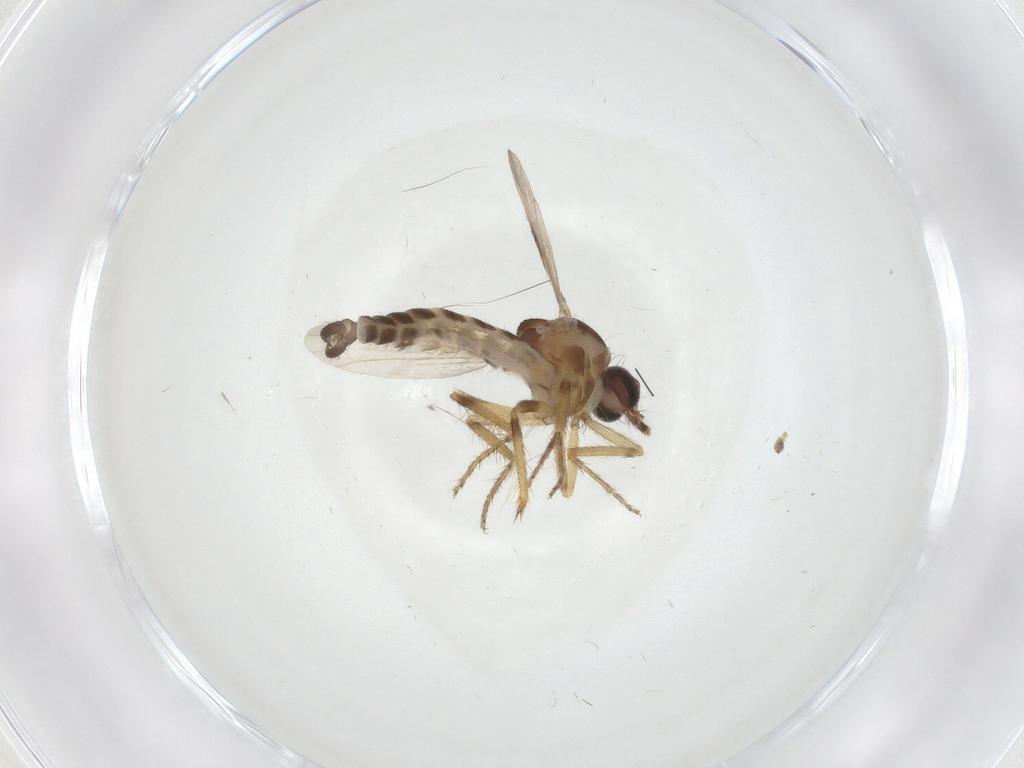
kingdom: Animalia
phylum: Arthropoda
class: Insecta
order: Diptera
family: Ceratopogonidae
